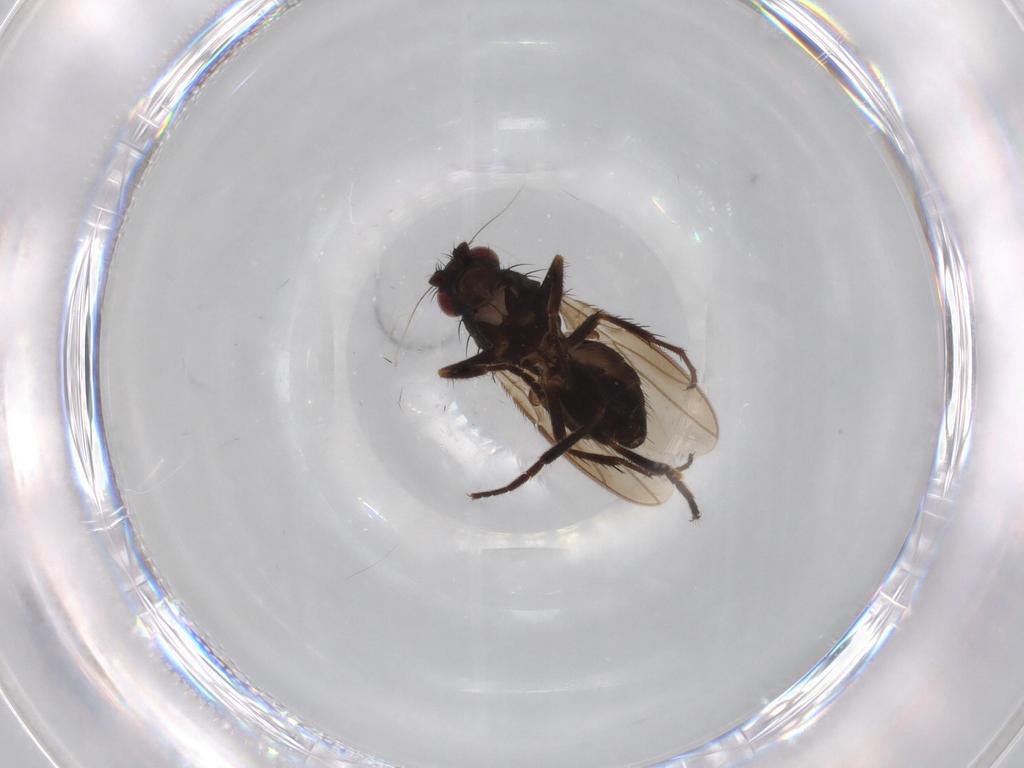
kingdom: Animalia
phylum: Arthropoda
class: Insecta
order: Diptera
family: Sphaeroceridae
